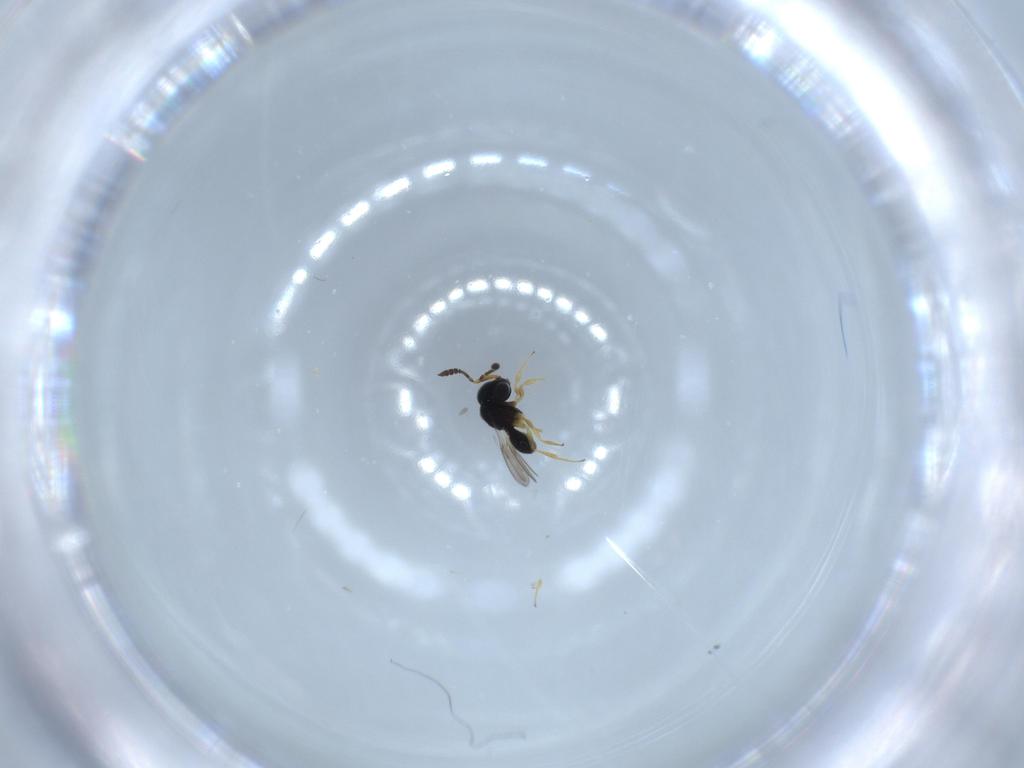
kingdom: Animalia
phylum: Arthropoda
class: Insecta
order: Hymenoptera
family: Scelionidae
